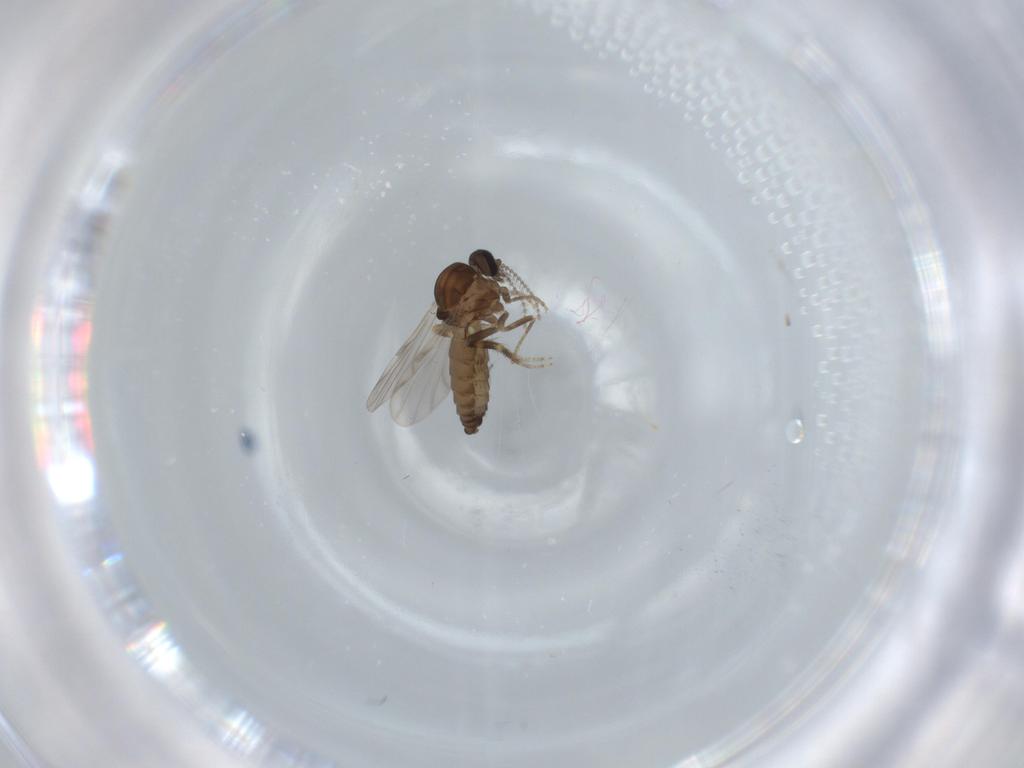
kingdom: Animalia
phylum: Arthropoda
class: Insecta
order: Diptera
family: Ceratopogonidae
